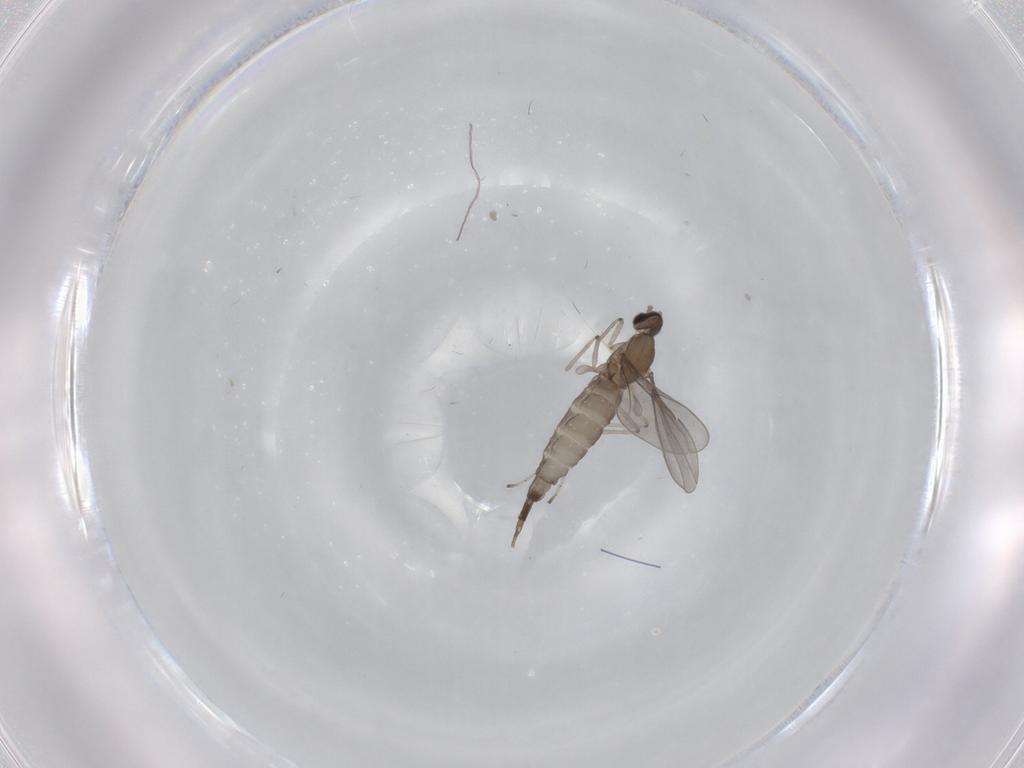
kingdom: Animalia
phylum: Arthropoda
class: Insecta
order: Diptera
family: Cecidomyiidae
